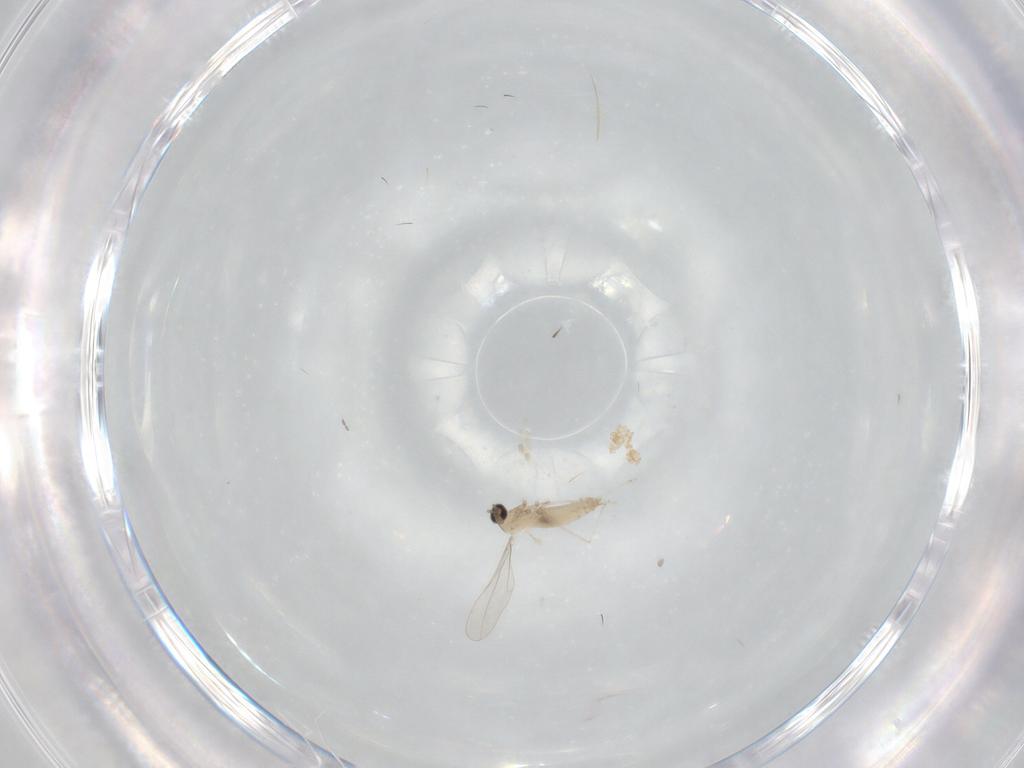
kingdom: Animalia
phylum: Arthropoda
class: Insecta
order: Diptera
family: Cecidomyiidae
